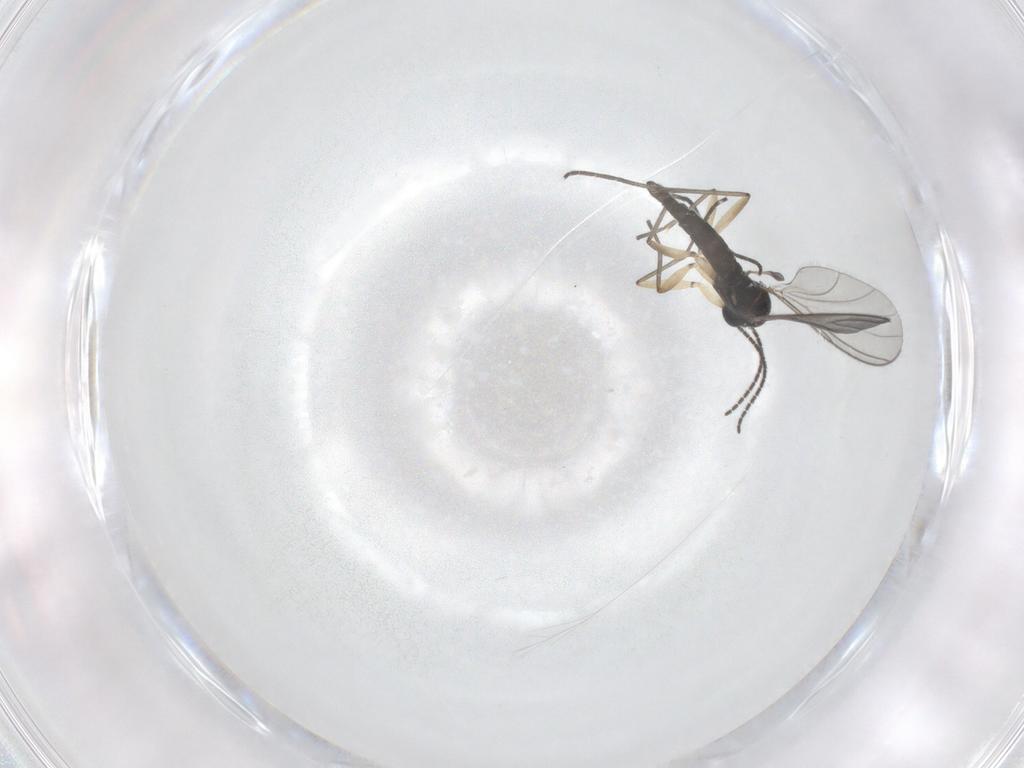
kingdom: Animalia
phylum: Arthropoda
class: Insecta
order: Diptera
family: Sciaridae
